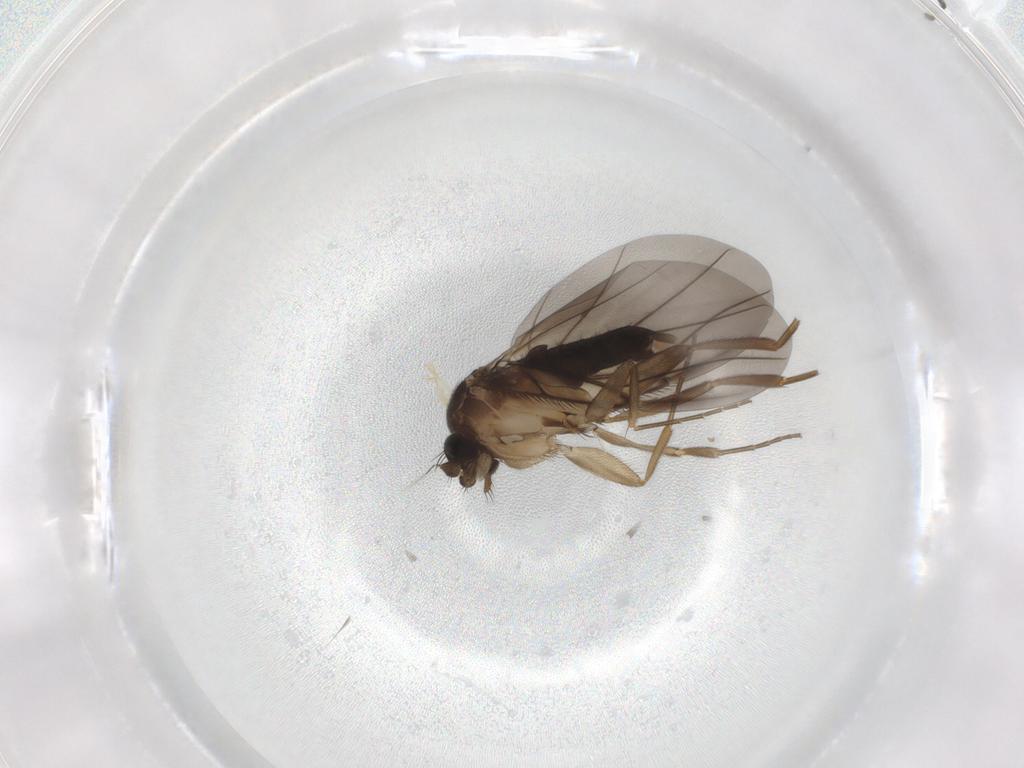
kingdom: Animalia
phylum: Arthropoda
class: Insecta
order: Diptera
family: Phoridae
